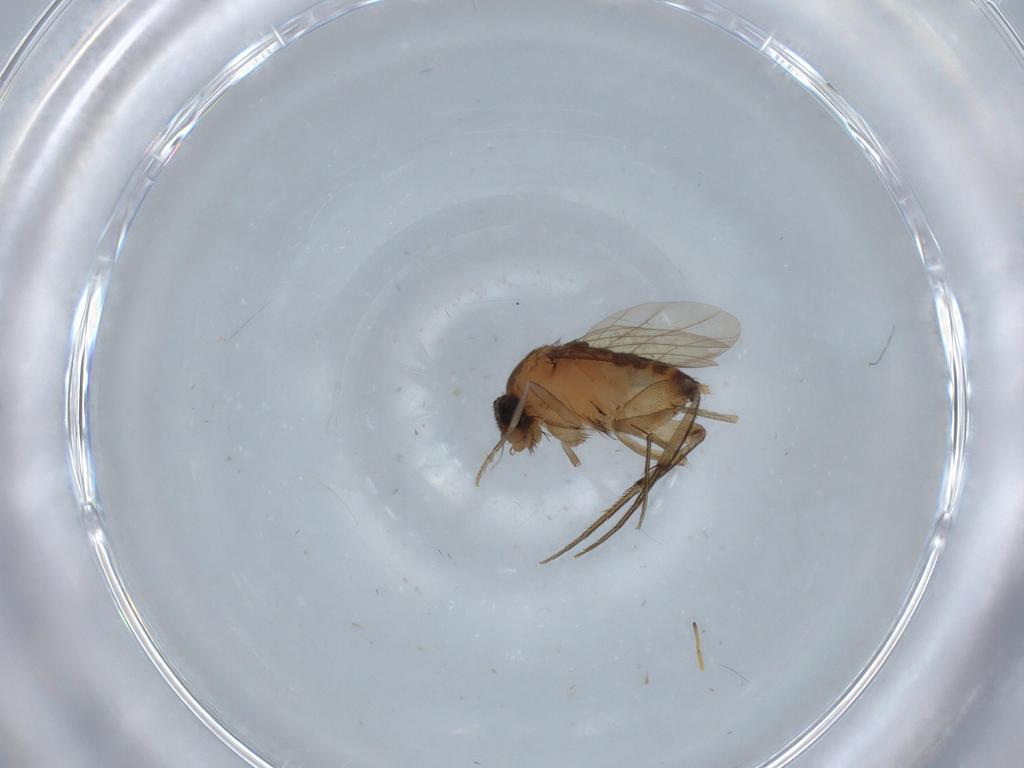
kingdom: Animalia
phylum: Arthropoda
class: Insecta
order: Diptera
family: Phoridae
